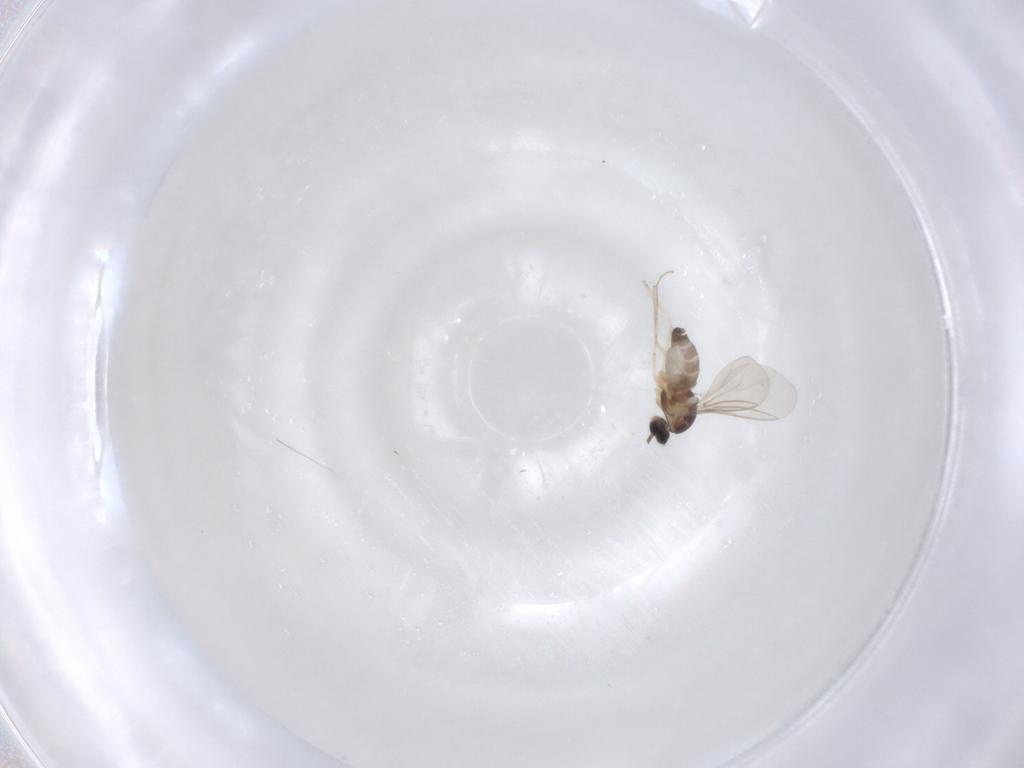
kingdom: Animalia
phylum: Arthropoda
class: Insecta
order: Diptera
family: Cecidomyiidae
